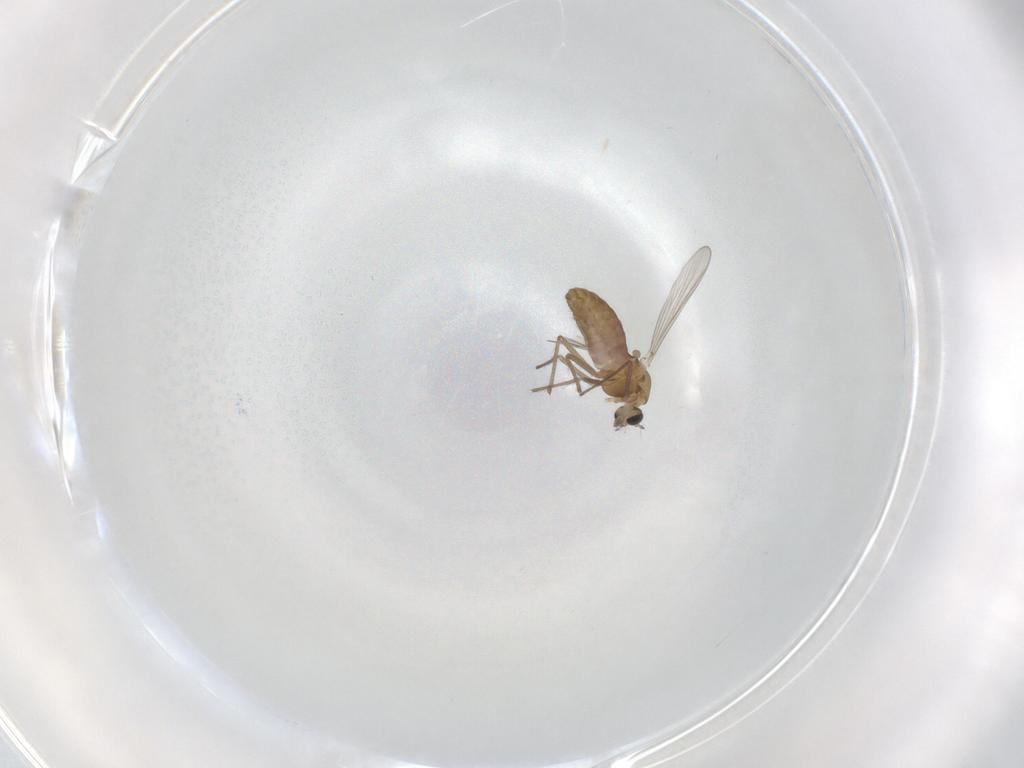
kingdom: Animalia
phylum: Arthropoda
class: Insecta
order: Diptera
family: Chironomidae
